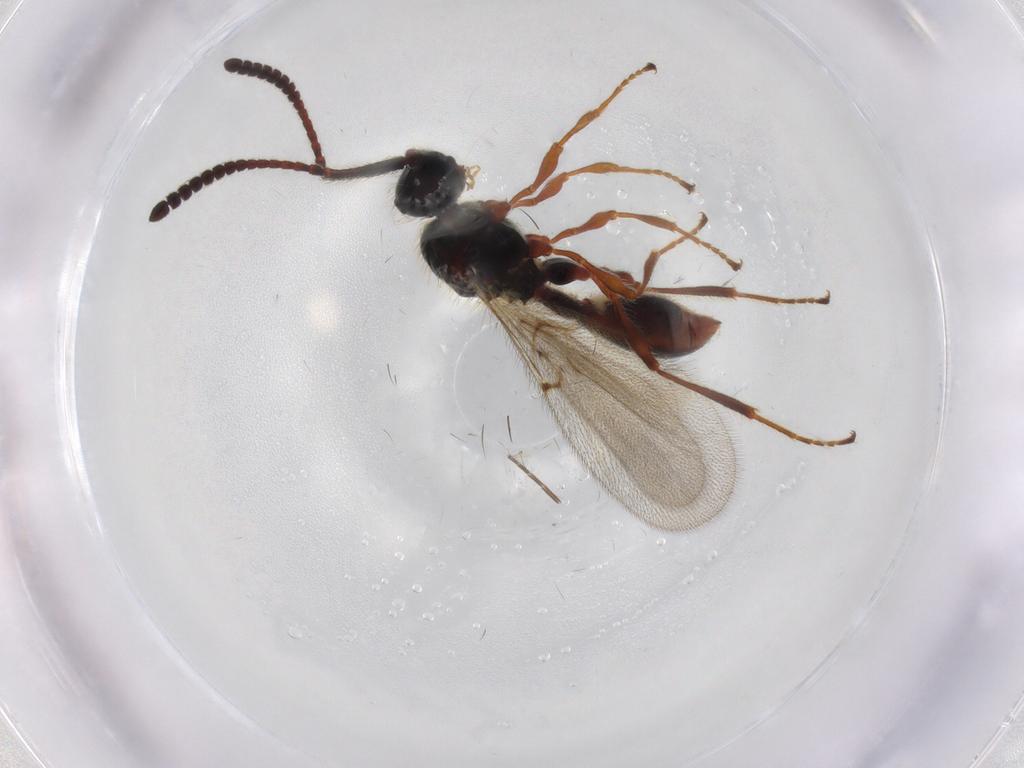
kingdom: Animalia
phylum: Arthropoda
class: Insecta
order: Hymenoptera
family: Diapriidae
